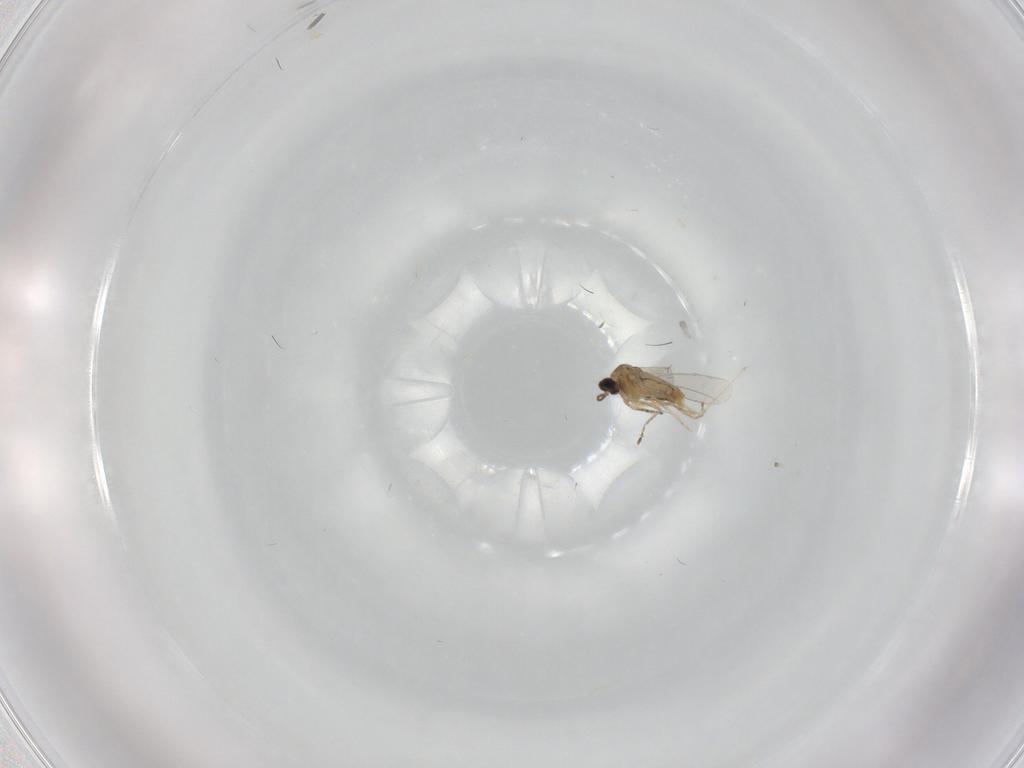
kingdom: Animalia
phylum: Arthropoda
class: Insecta
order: Diptera
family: Cecidomyiidae
